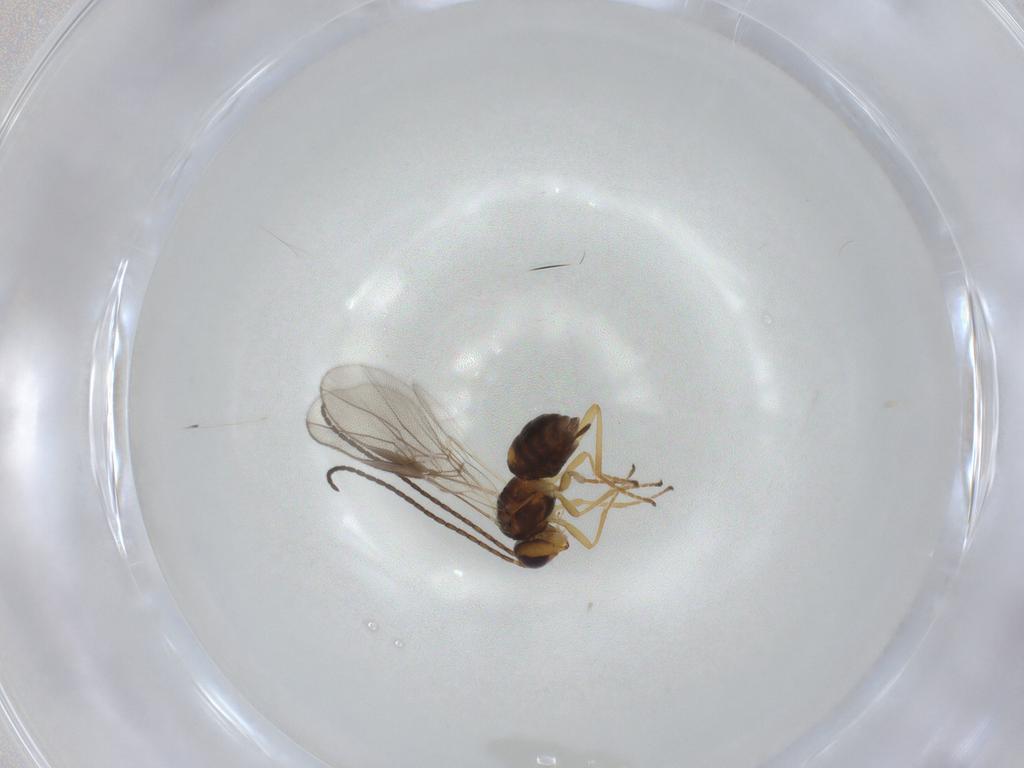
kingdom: Animalia
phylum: Arthropoda
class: Insecta
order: Hymenoptera
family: Braconidae
